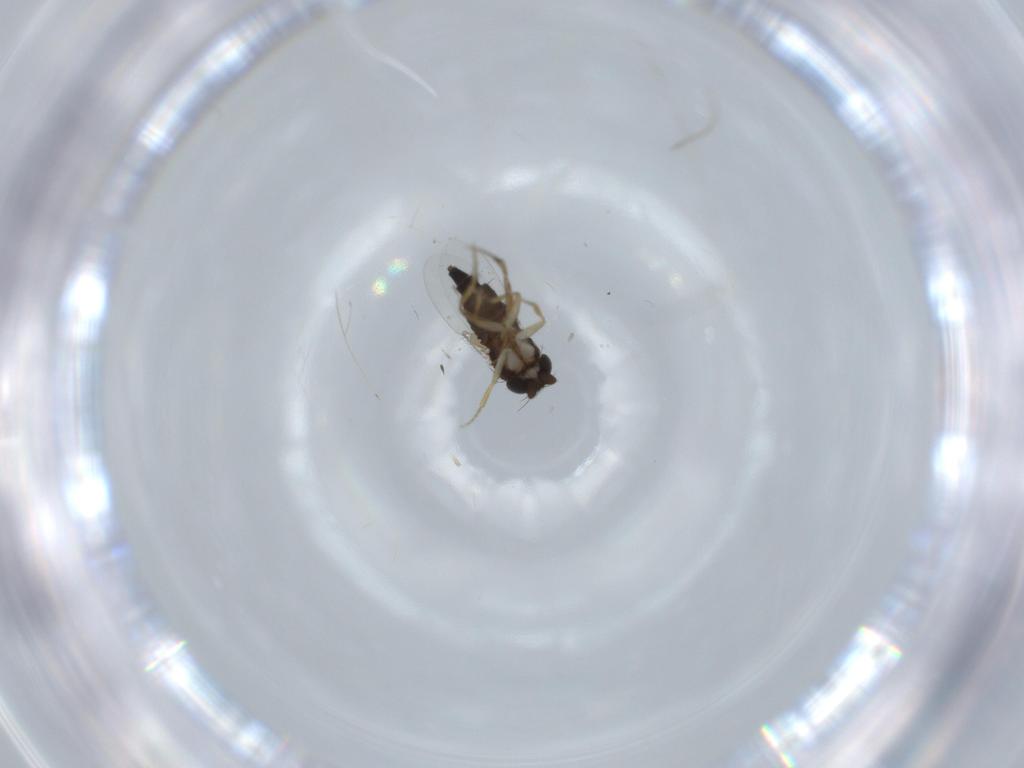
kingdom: Animalia
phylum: Arthropoda
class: Insecta
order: Diptera
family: Phoridae
